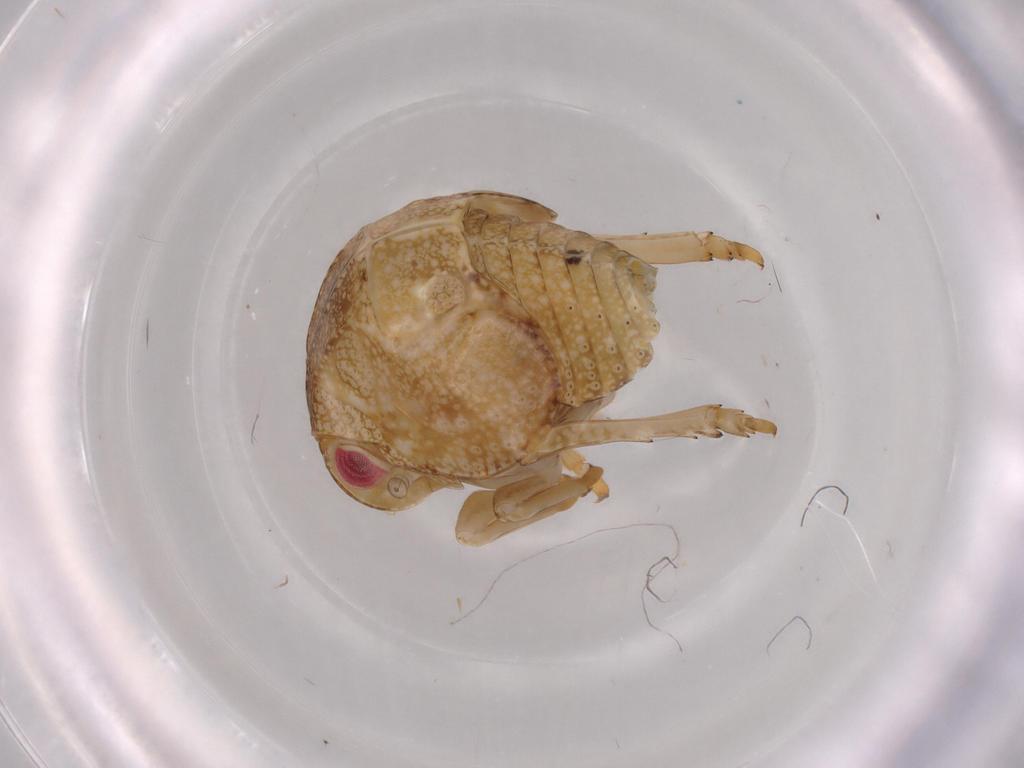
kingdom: Animalia
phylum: Arthropoda
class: Insecta
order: Hemiptera
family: Acanaloniidae
